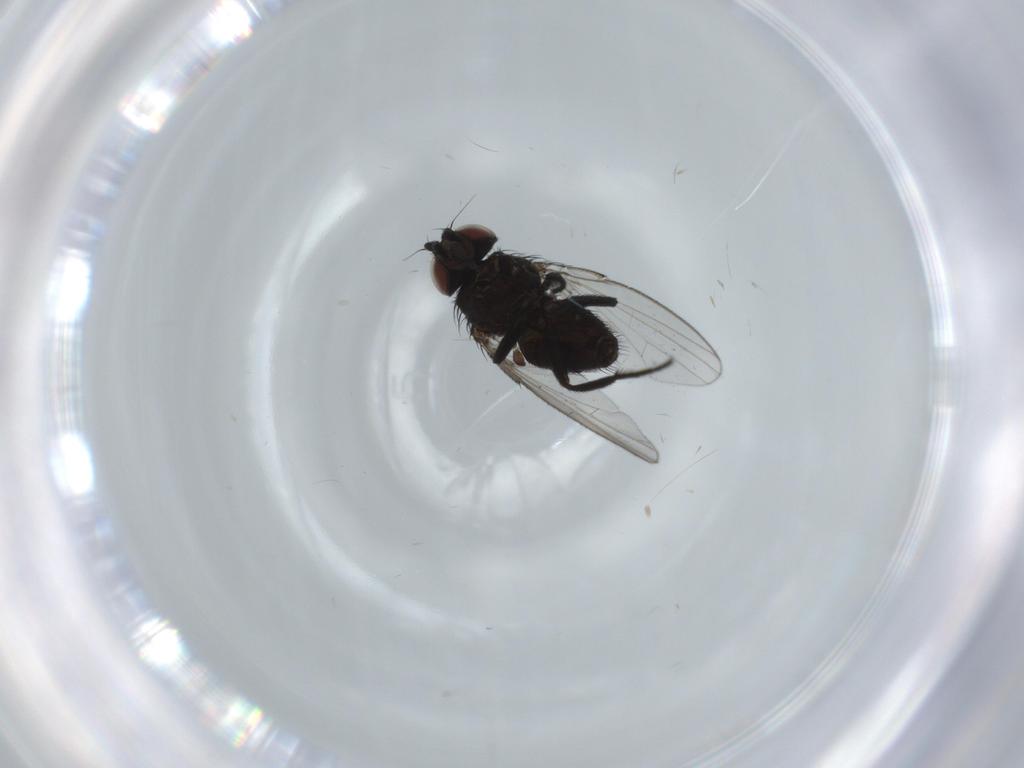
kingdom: Animalia
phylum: Arthropoda
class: Insecta
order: Diptera
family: Milichiidae
